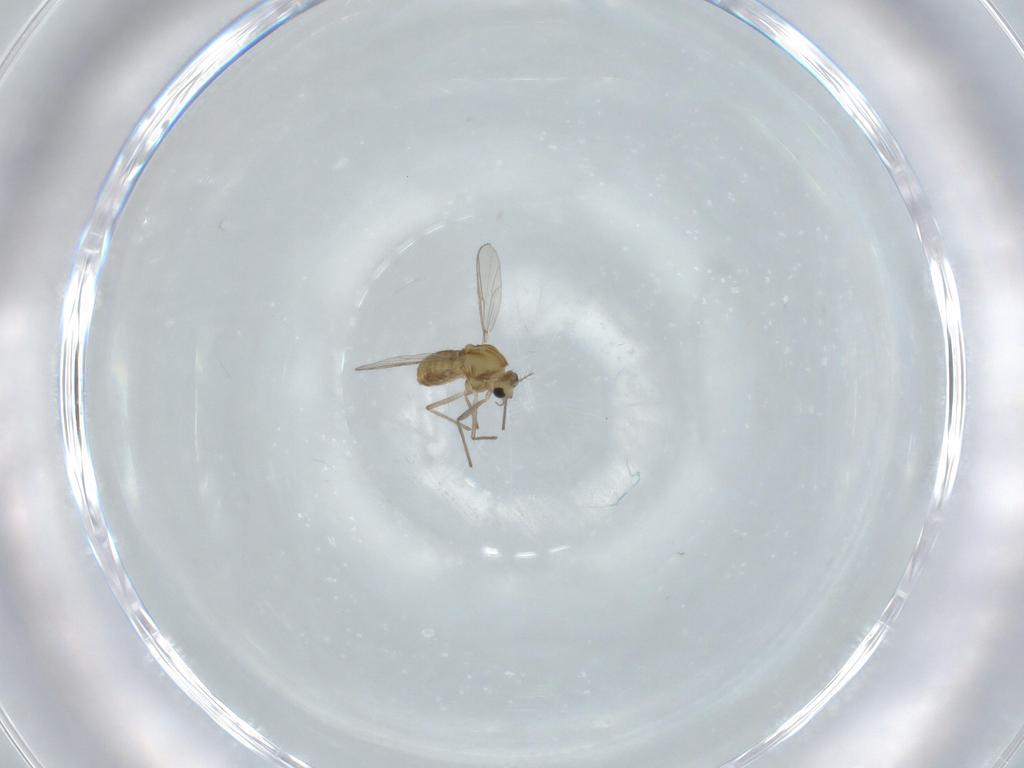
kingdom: Animalia
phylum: Arthropoda
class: Insecta
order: Diptera
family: Chironomidae
